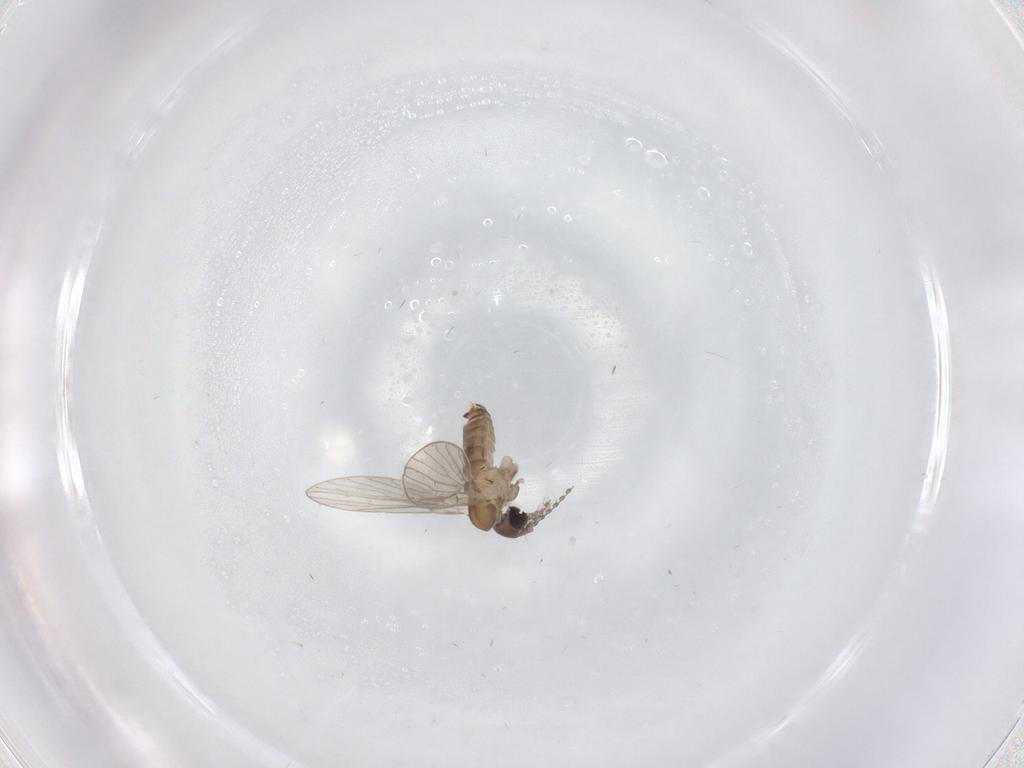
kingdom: Animalia
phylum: Arthropoda
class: Insecta
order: Diptera
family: Psychodidae
